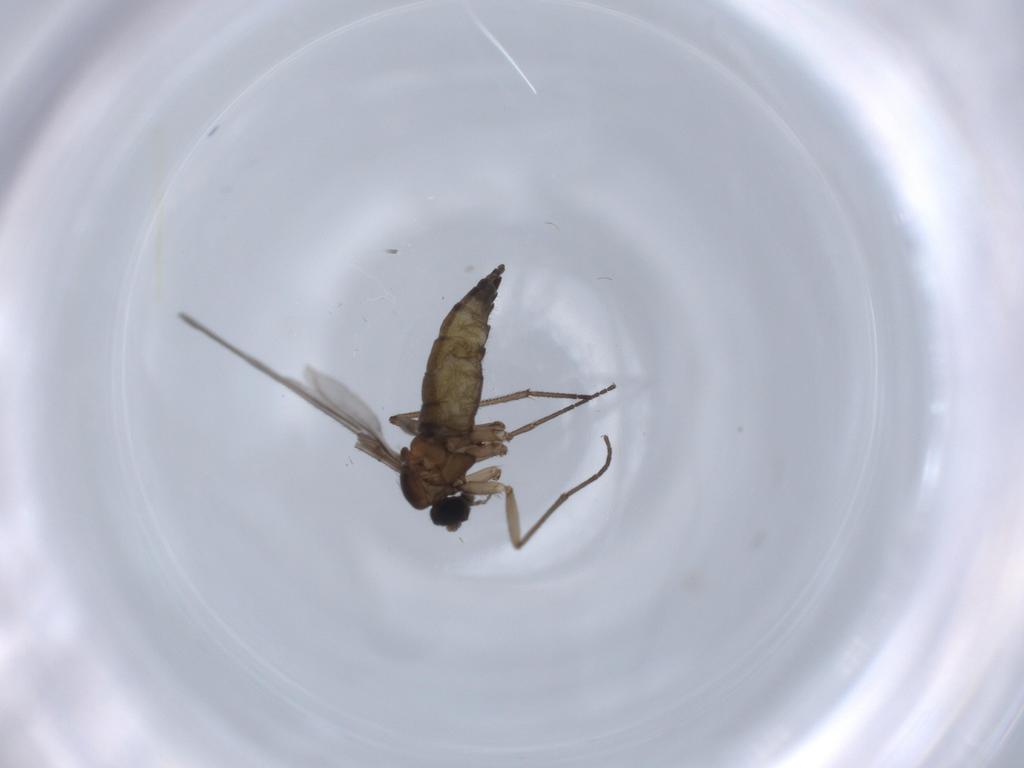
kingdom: Animalia
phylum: Arthropoda
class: Insecta
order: Diptera
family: Sciaridae
